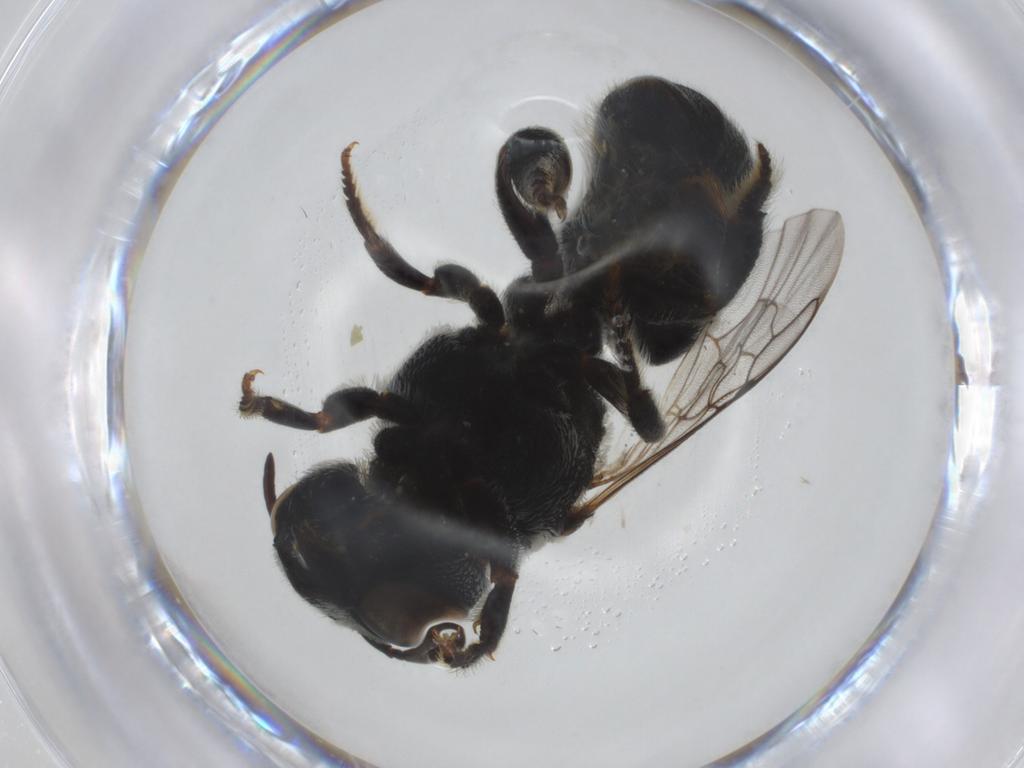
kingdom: Animalia
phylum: Arthropoda
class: Insecta
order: Hymenoptera
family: Megachilidae
